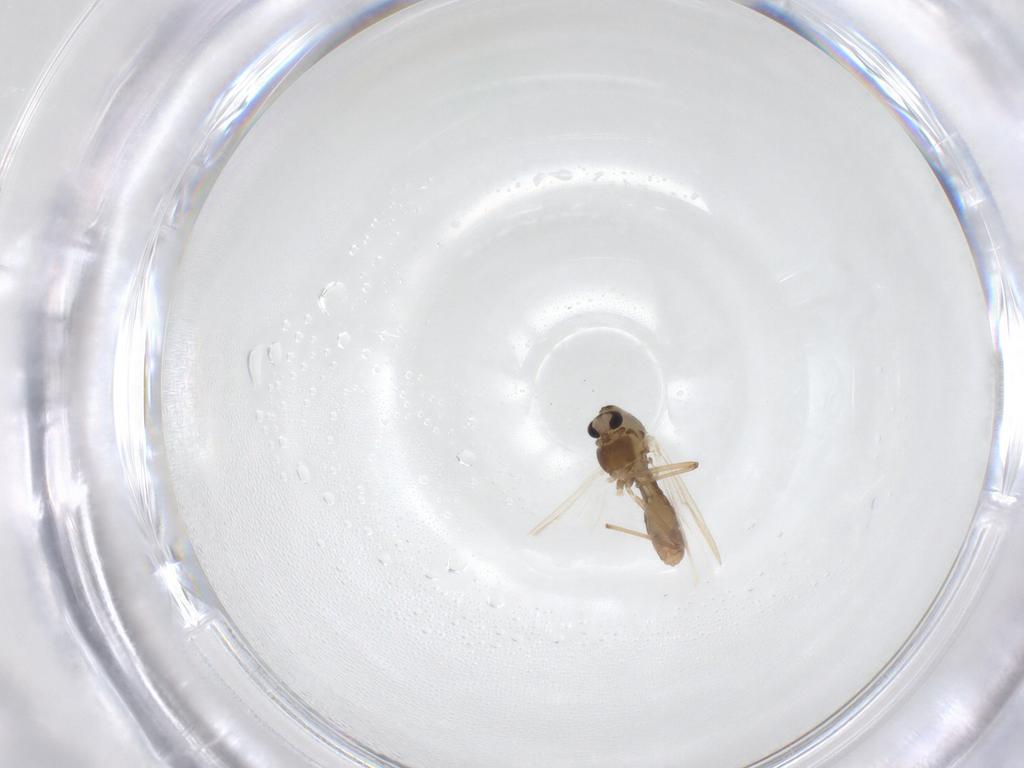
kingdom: Animalia
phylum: Arthropoda
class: Insecta
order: Diptera
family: Chironomidae
